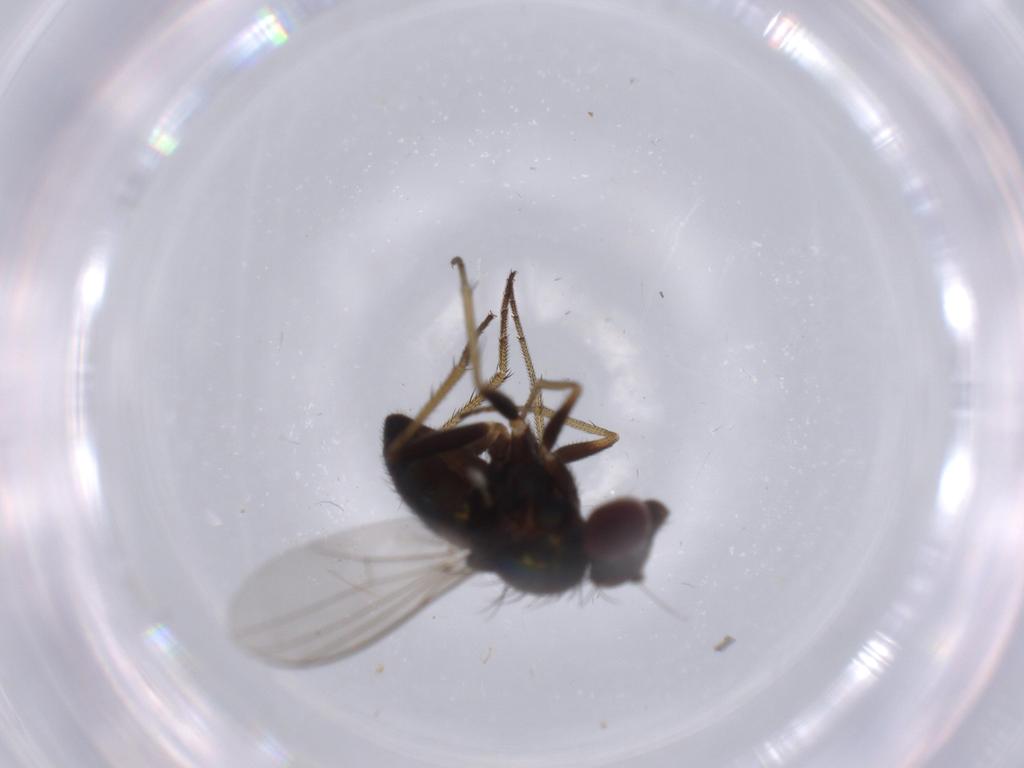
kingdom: Animalia
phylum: Arthropoda
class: Insecta
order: Diptera
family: Dolichopodidae
